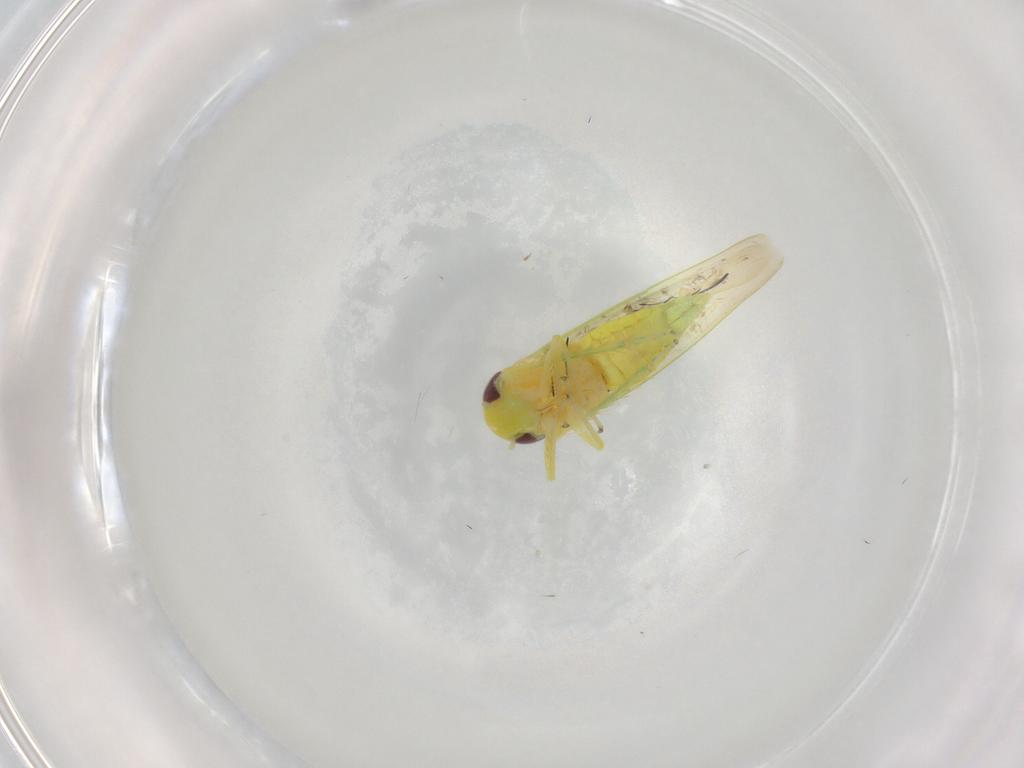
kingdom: Animalia
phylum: Arthropoda
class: Insecta
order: Hemiptera
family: Cicadellidae
